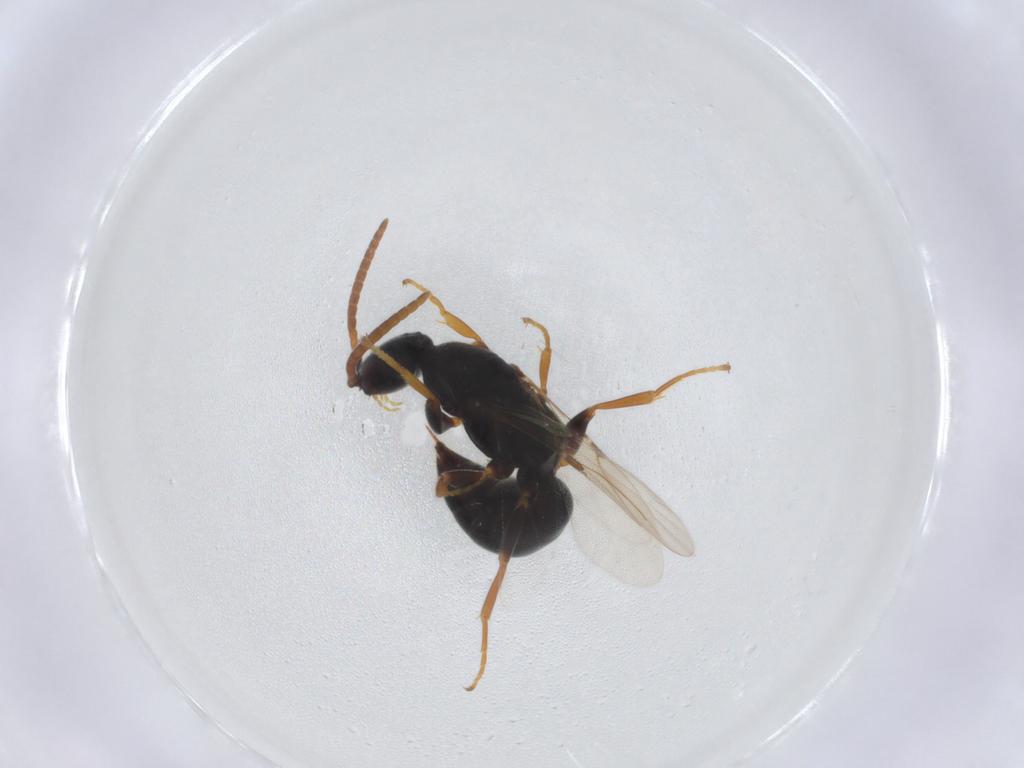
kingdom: Animalia
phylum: Arthropoda
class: Insecta
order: Hymenoptera
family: Bethylidae
